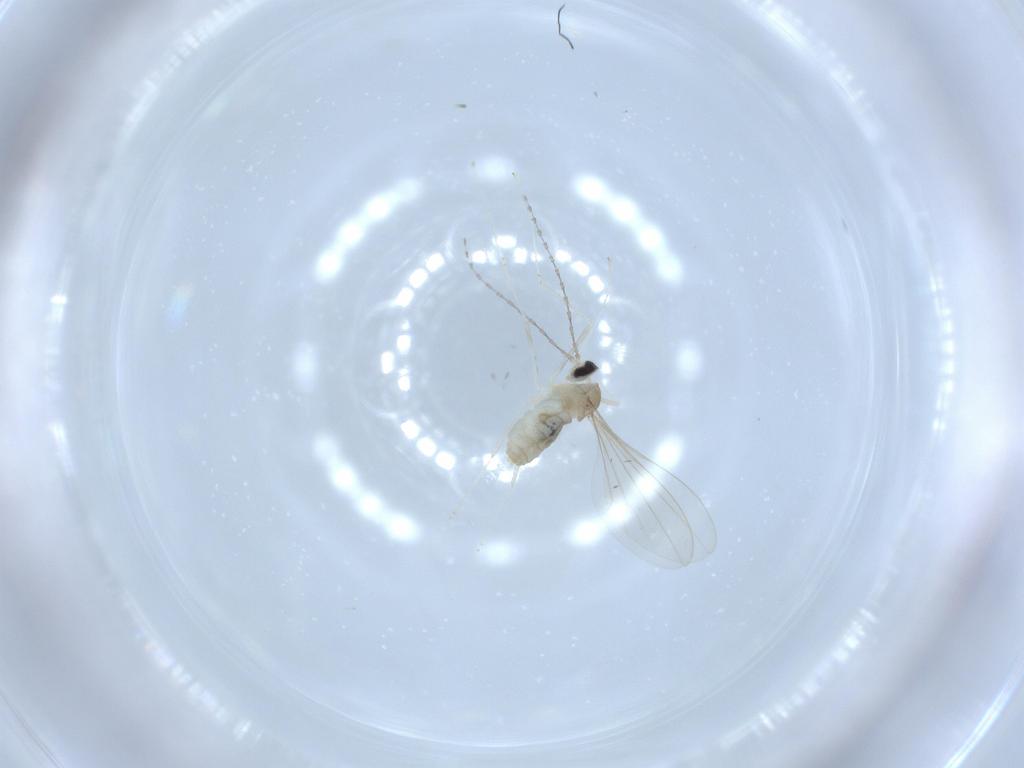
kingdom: Animalia
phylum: Arthropoda
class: Insecta
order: Diptera
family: Cecidomyiidae
